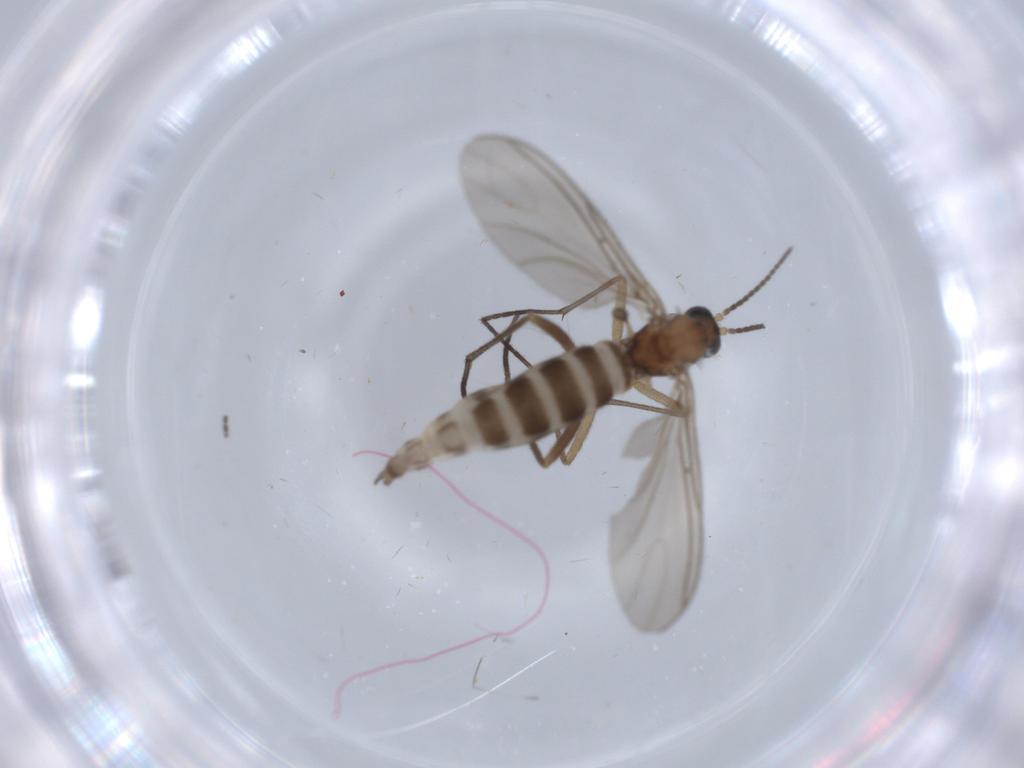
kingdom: Animalia
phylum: Arthropoda
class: Insecta
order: Diptera
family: Sciaridae
